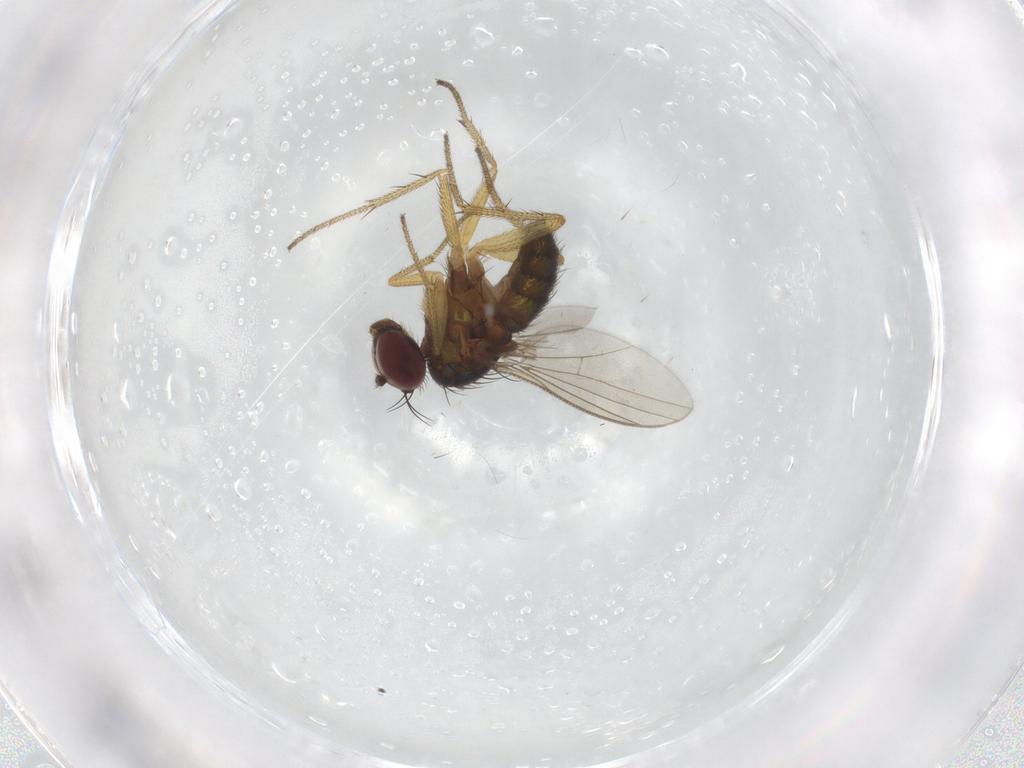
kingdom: Animalia
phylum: Arthropoda
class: Insecta
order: Diptera
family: Dolichopodidae
